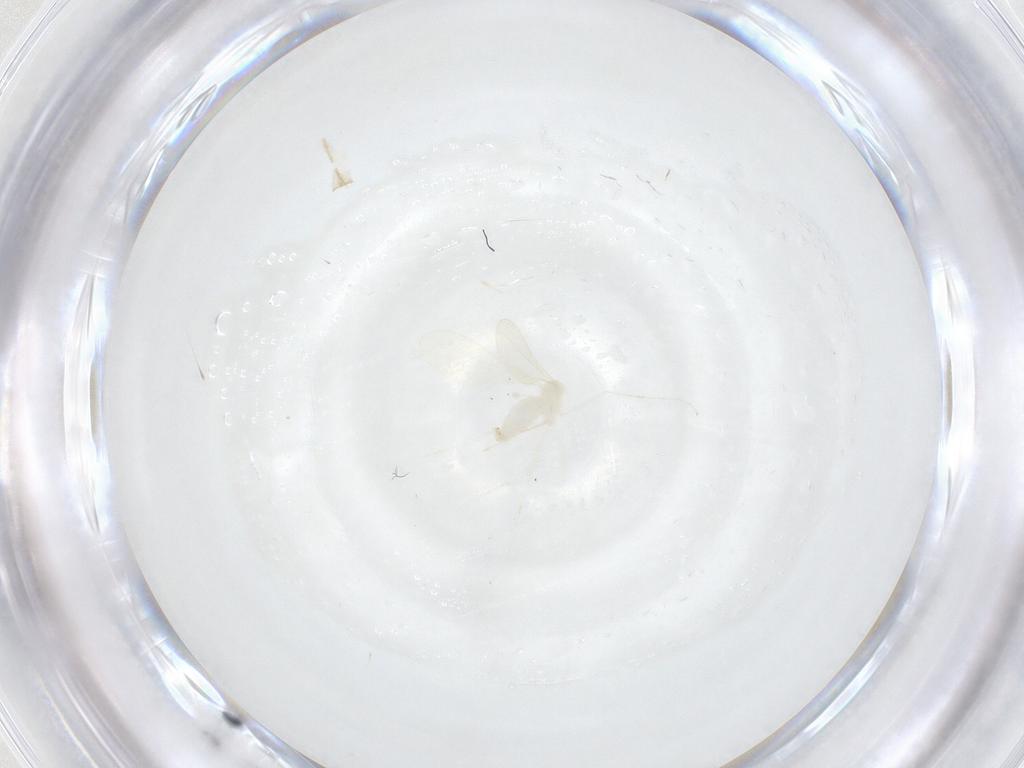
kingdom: Animalia
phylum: Arthropoda
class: Insecta
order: Diptera
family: Cecidomyiidae
